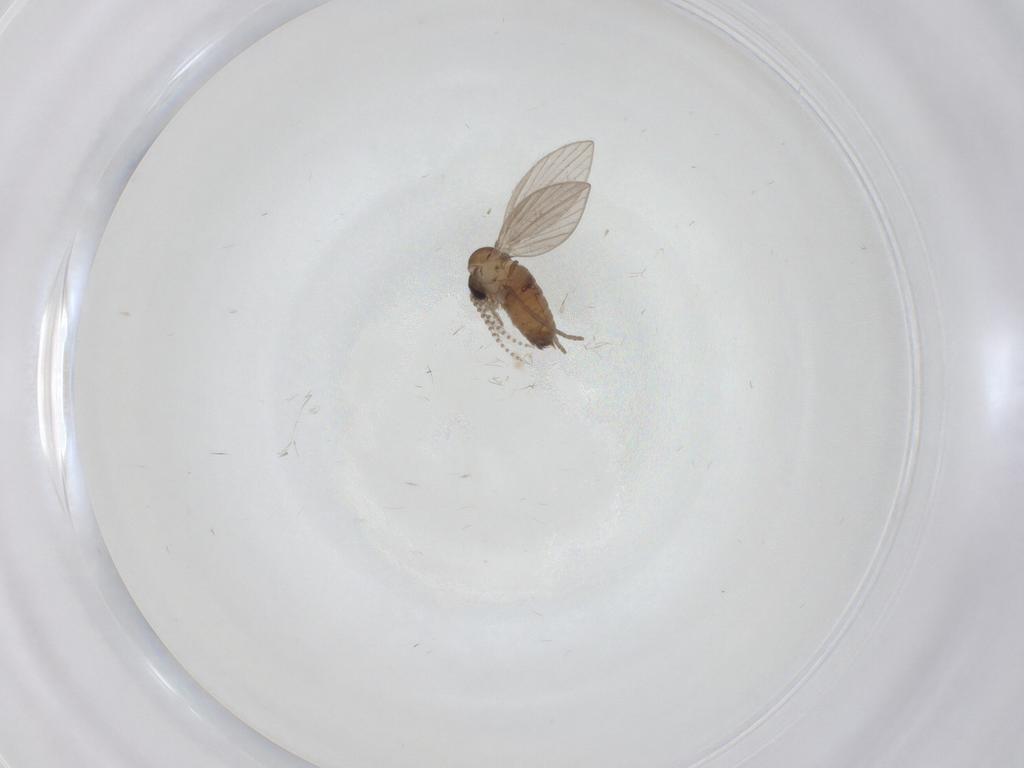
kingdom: Animalia
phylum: Arthropoda
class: Insecta
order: Diptera
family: Psychodidae
